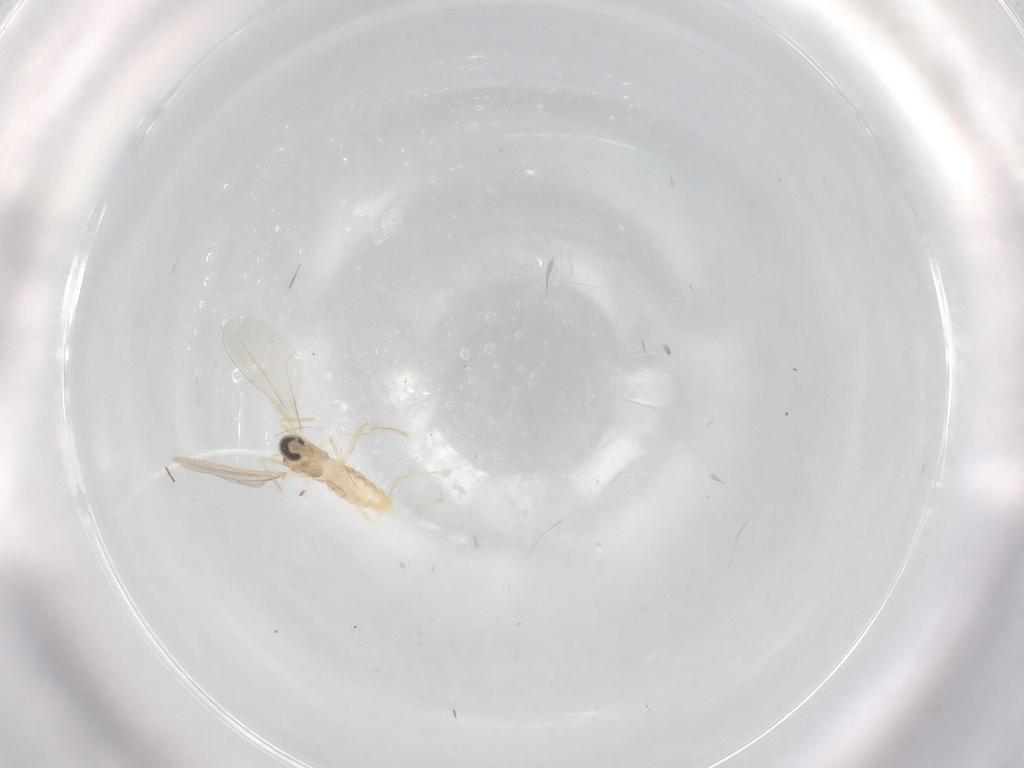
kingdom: Animalia
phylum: Arthropoda
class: Insecta
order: Diptera
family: Cecidomyiidae
